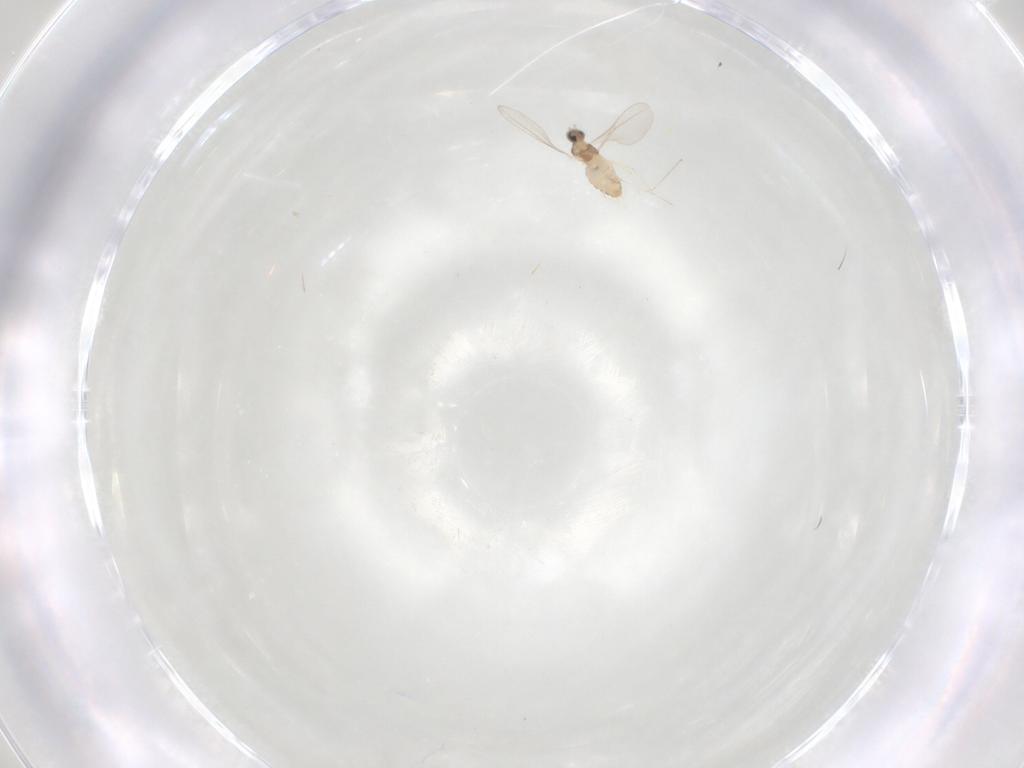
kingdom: Animalia
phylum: Arthropoda
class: Insecta
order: Diptera
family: Cecidomyiidae
